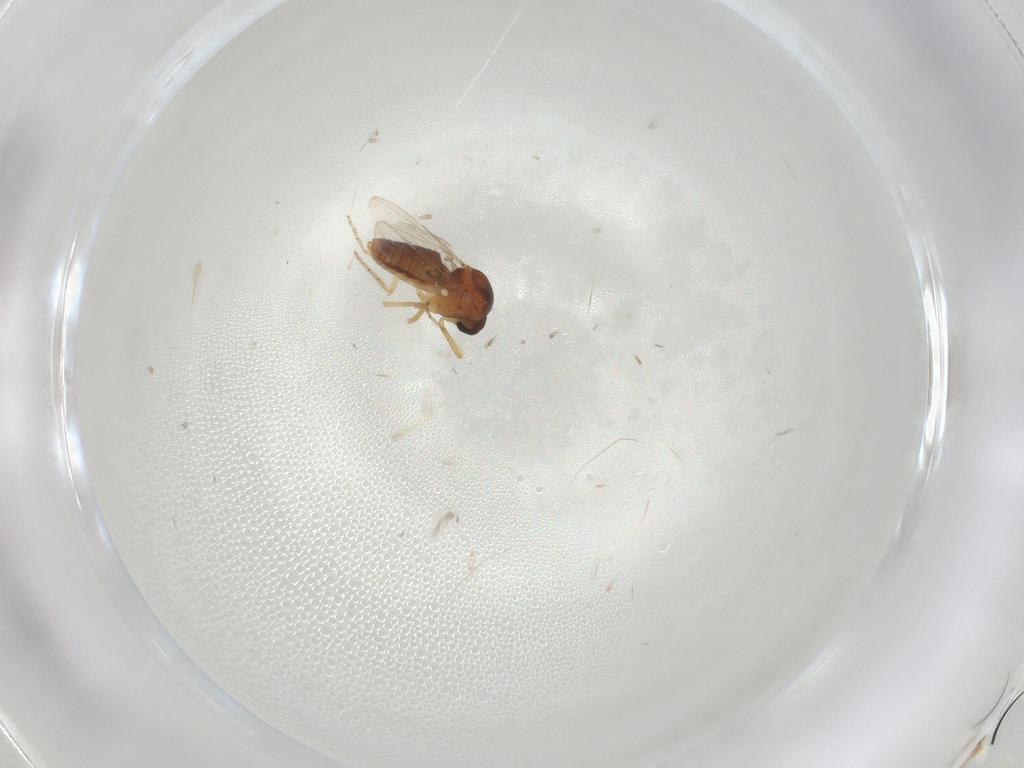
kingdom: Animalia
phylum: Arthropoda
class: Insecta
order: Diptera
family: Ceratopogonidae
